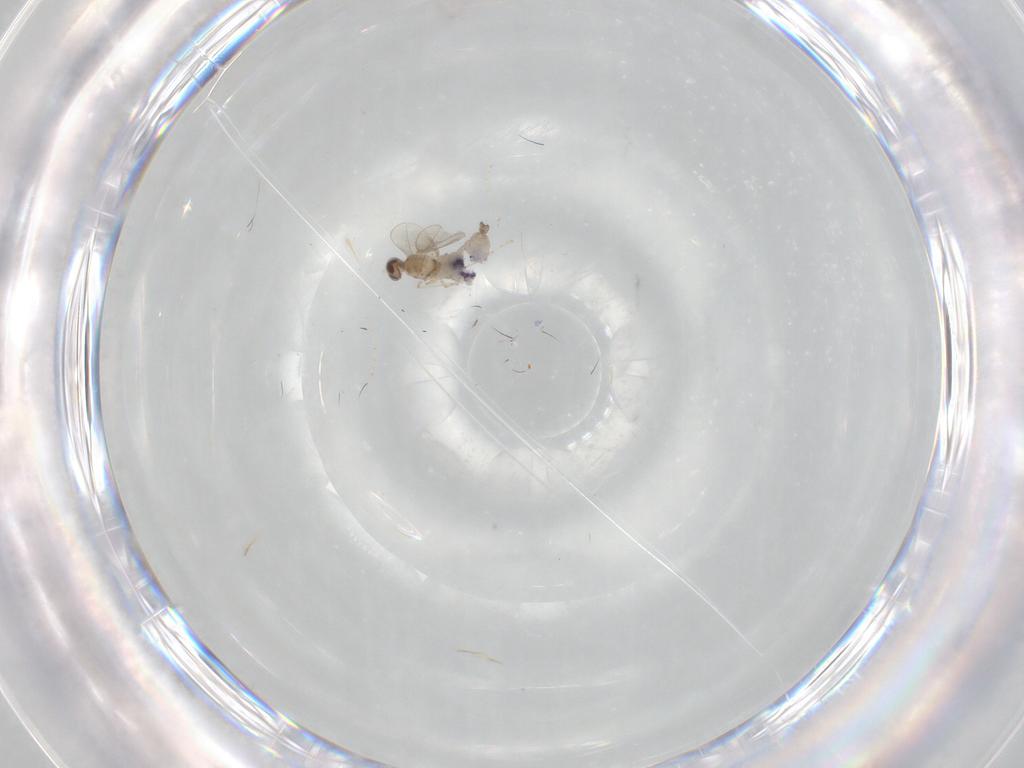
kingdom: Animalia
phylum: Arthropoda
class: Insecta
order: Diptera
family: Cecidomyiidae
